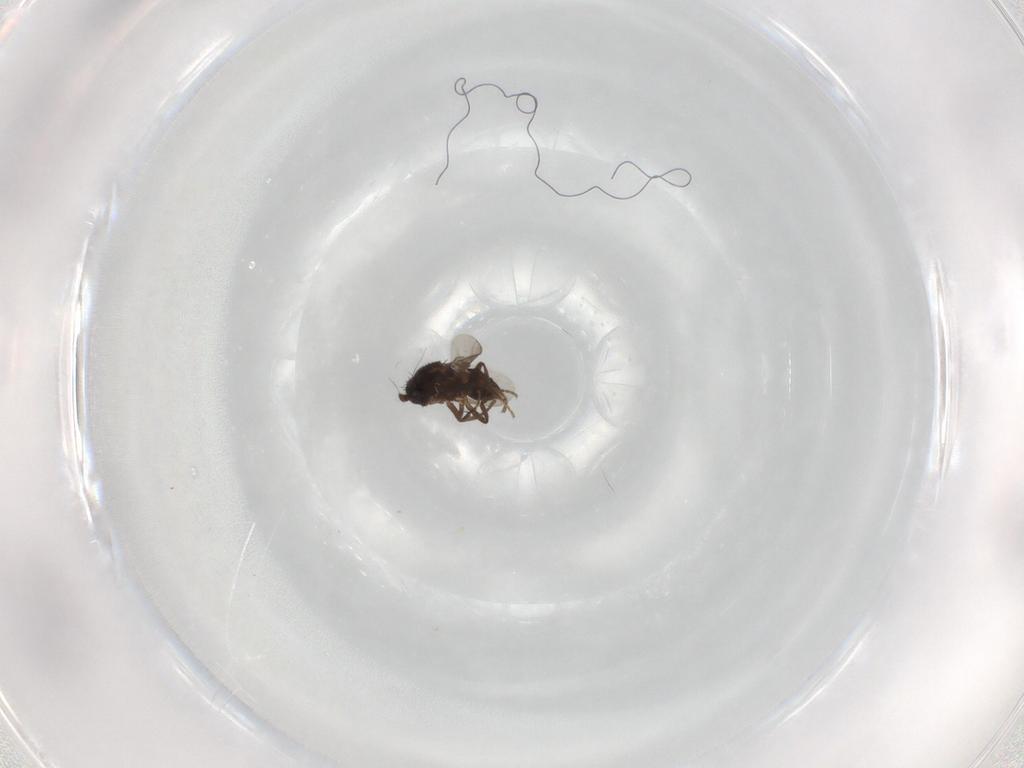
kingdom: Animalia
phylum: Arthropoda
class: Insecta
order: Diptera
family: Sphaeroceridae
